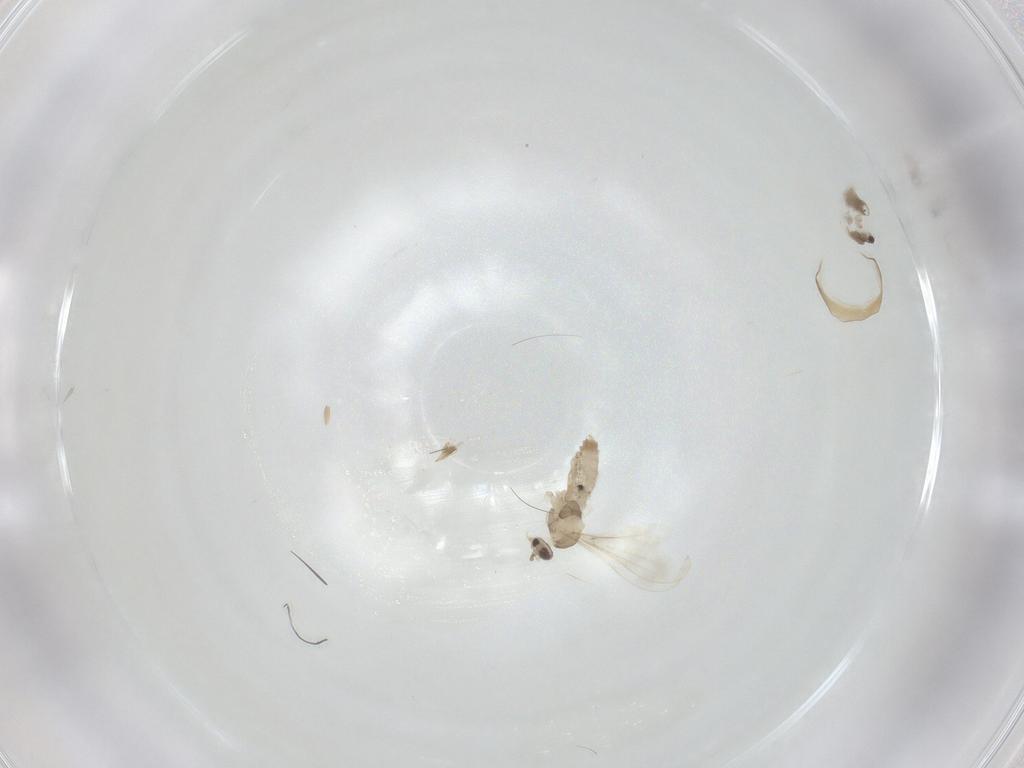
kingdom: Animalia
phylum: Arthropoda
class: Insecta
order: Diptera
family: Cecidomyiidae
